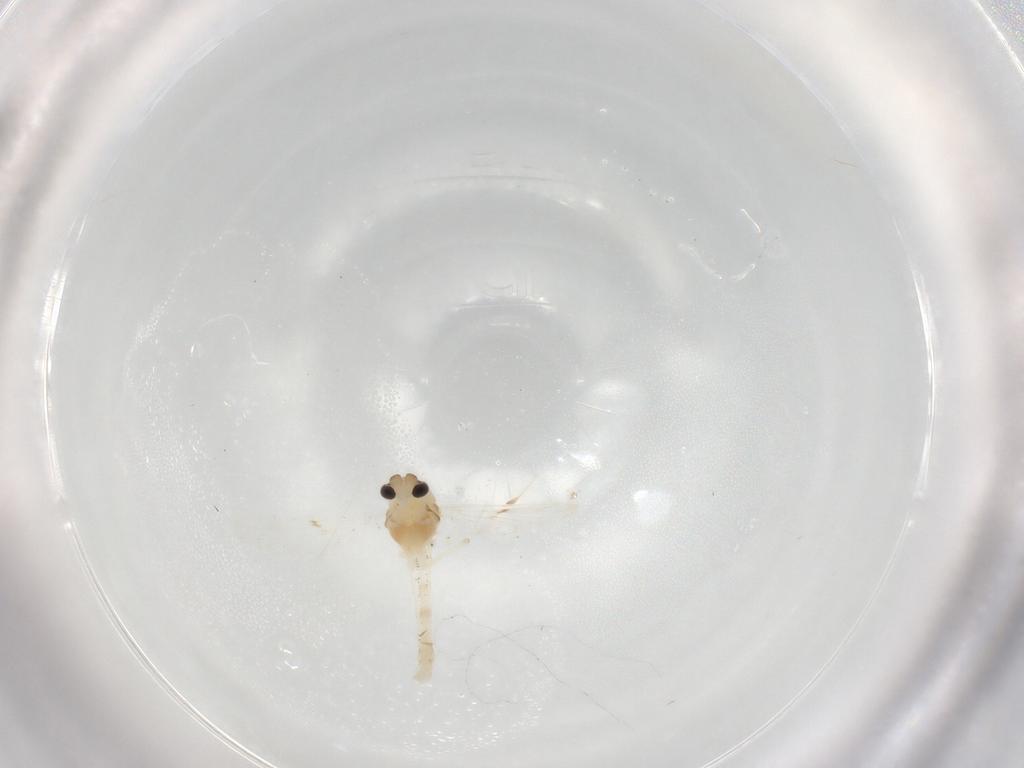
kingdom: Animalia
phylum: Arthropoda
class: Insecta
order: Diptera
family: Chironomidae
